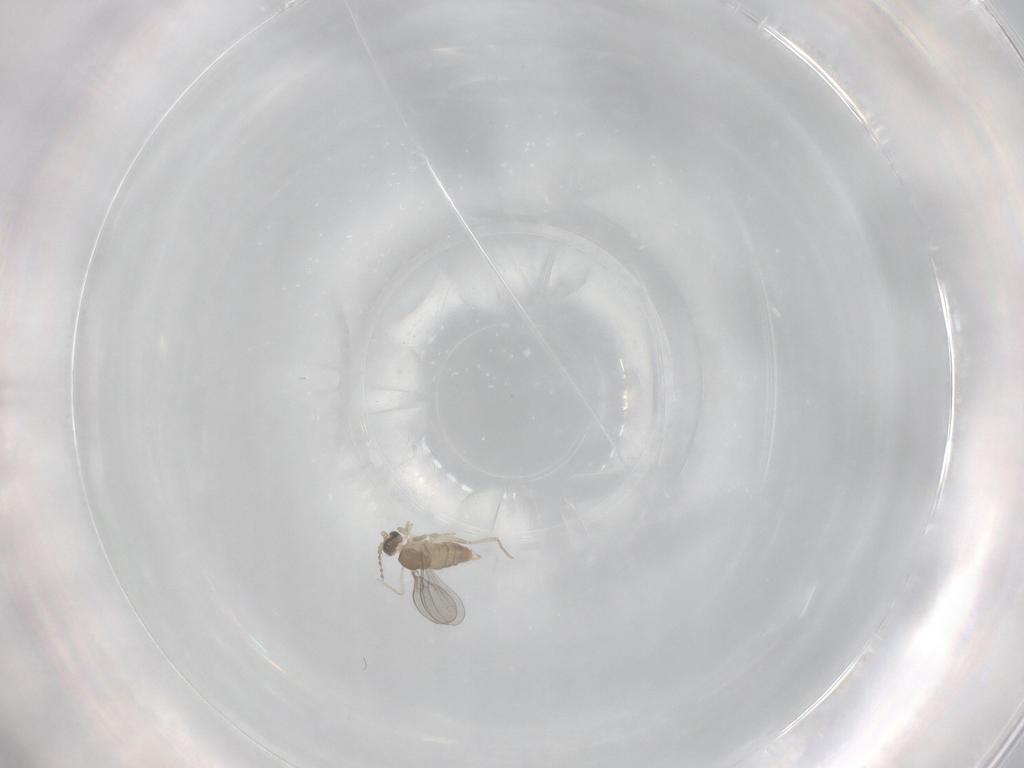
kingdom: Animalia
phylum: Arthropoda
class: Insecta
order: Diptera
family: Cecidomyiidae
